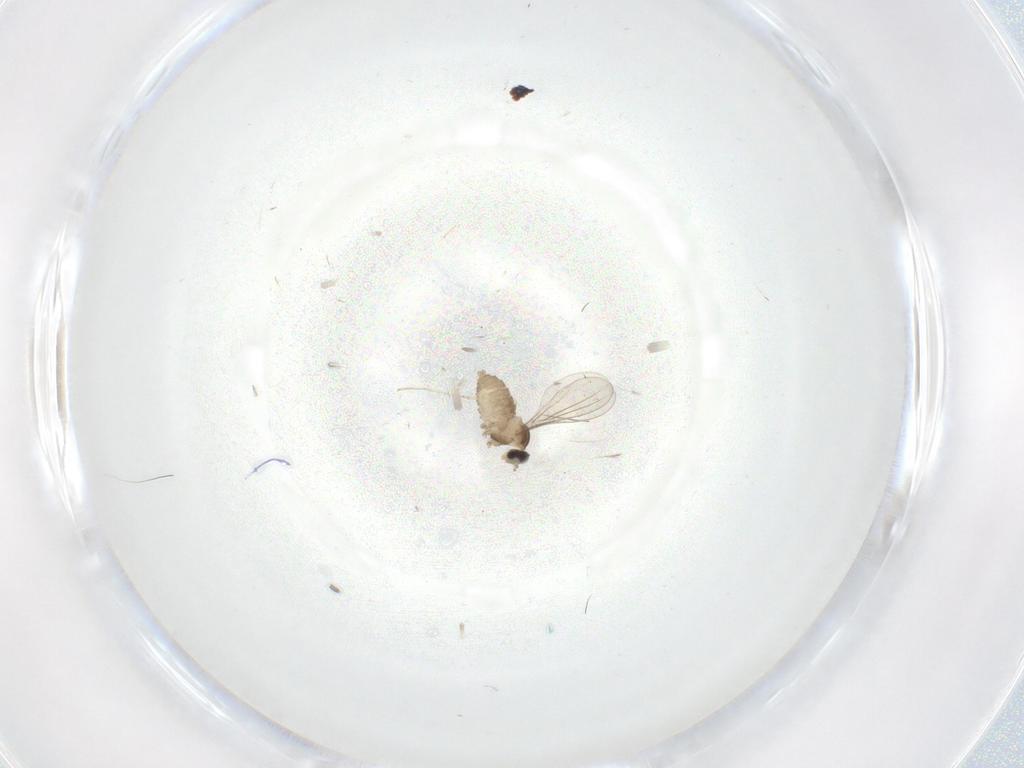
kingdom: Animalia
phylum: Arthropoda
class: Insecta
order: Diptera
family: Cecidomyiidae
